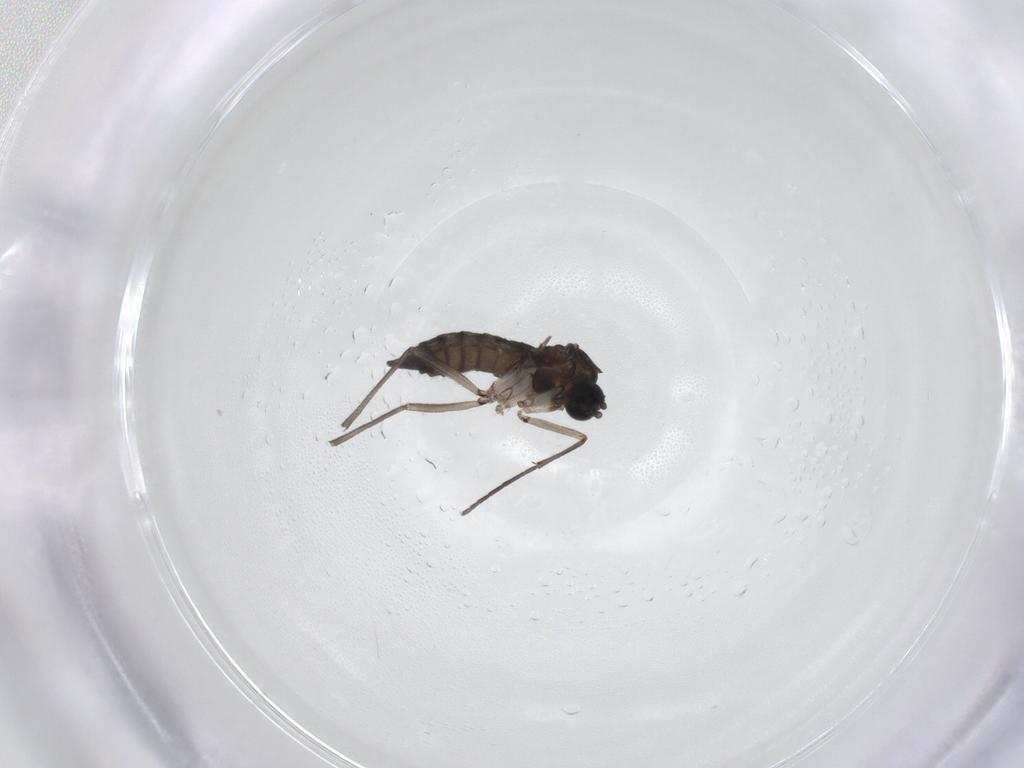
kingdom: Animalia
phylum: Arthropoda
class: Insecta
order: Diptera
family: Sciaridae
